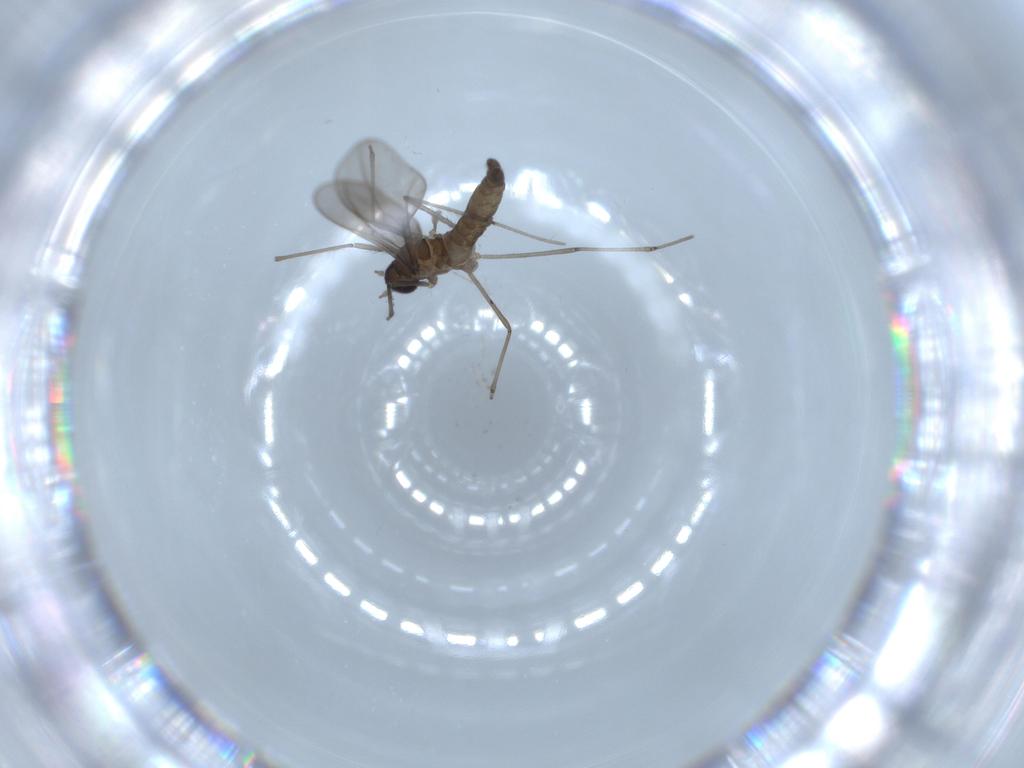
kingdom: Animalia
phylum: Arthropoda
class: Insecta
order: Diptera
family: Cecidomyiidae
